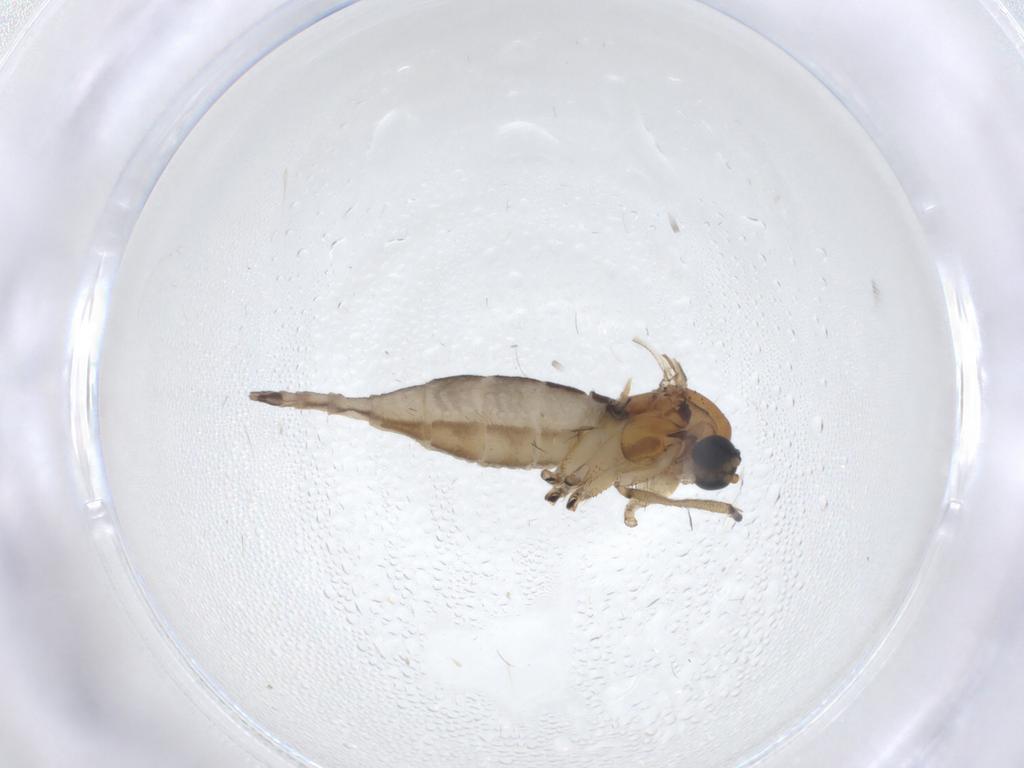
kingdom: Animalia
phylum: Arthropoda
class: Insecta
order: Diptera
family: Sciaridae
